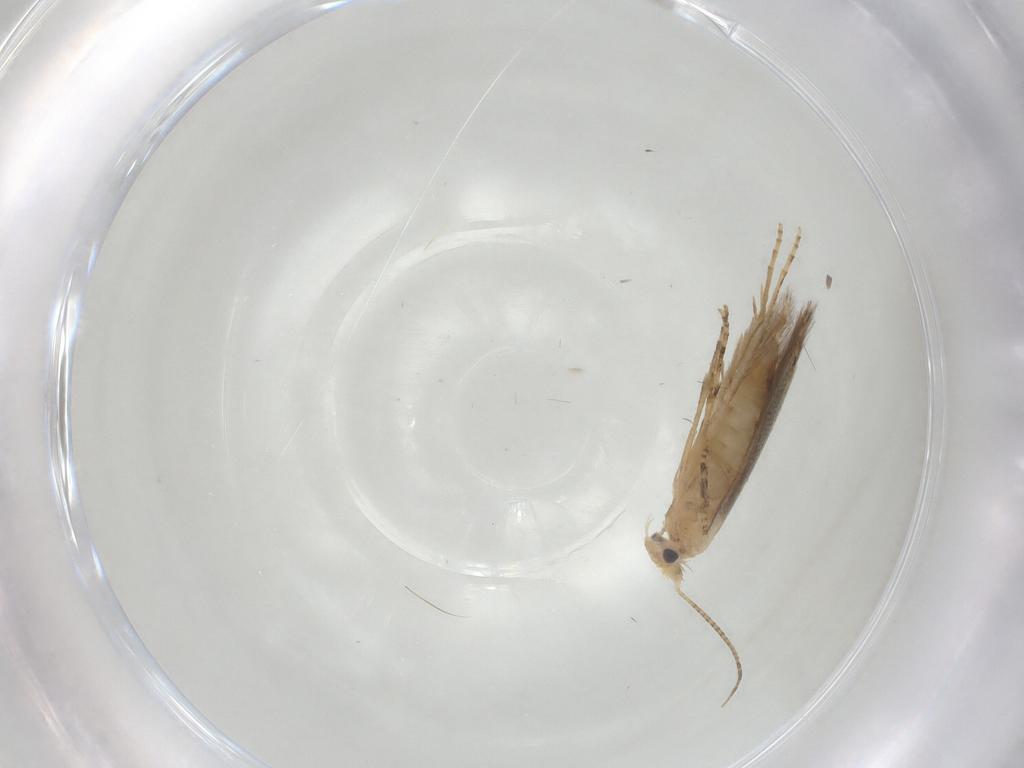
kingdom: Animalia
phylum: Arthropoda
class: Insecta
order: Lepidoptera
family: Bucculatricidae
